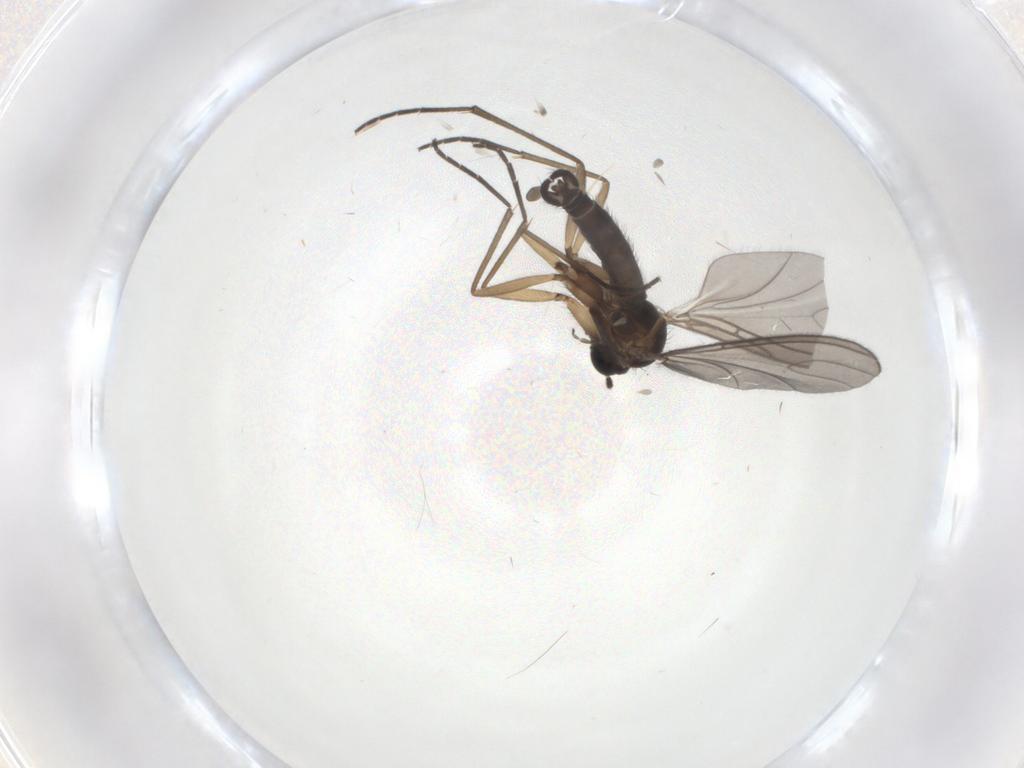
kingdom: Animalia
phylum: Arthropoda
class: Insecta
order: Diptera
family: Sciaridae
